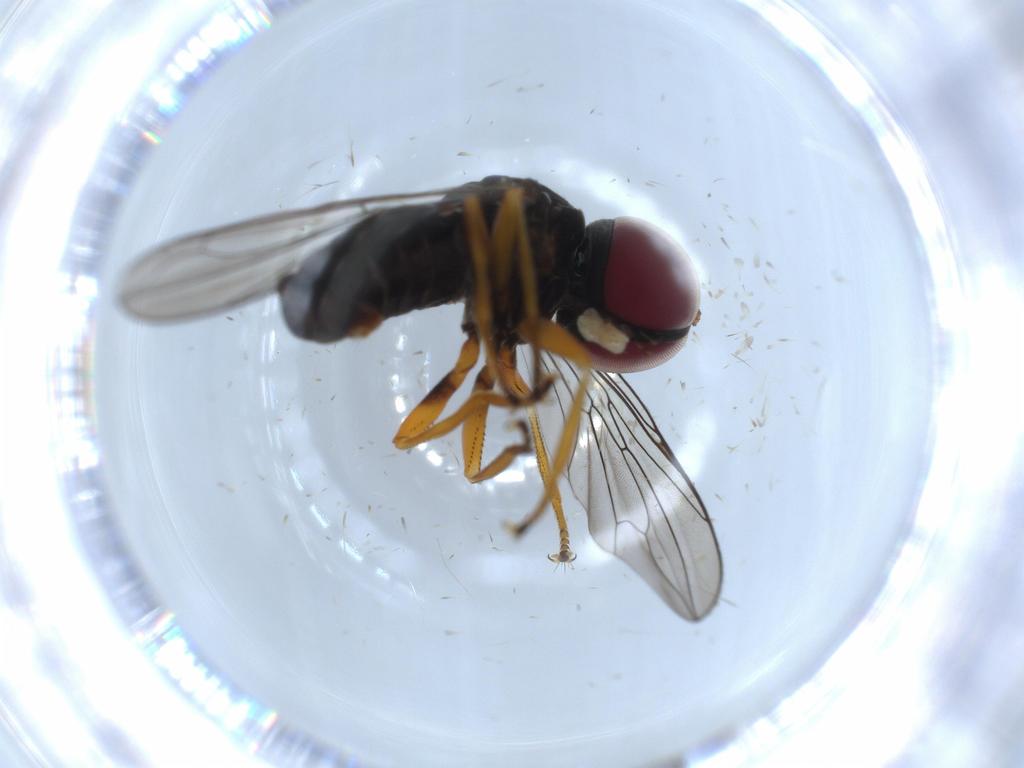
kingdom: Animalia
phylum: Arthropoda
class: Insecta
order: Diptera
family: Pipunculidae
